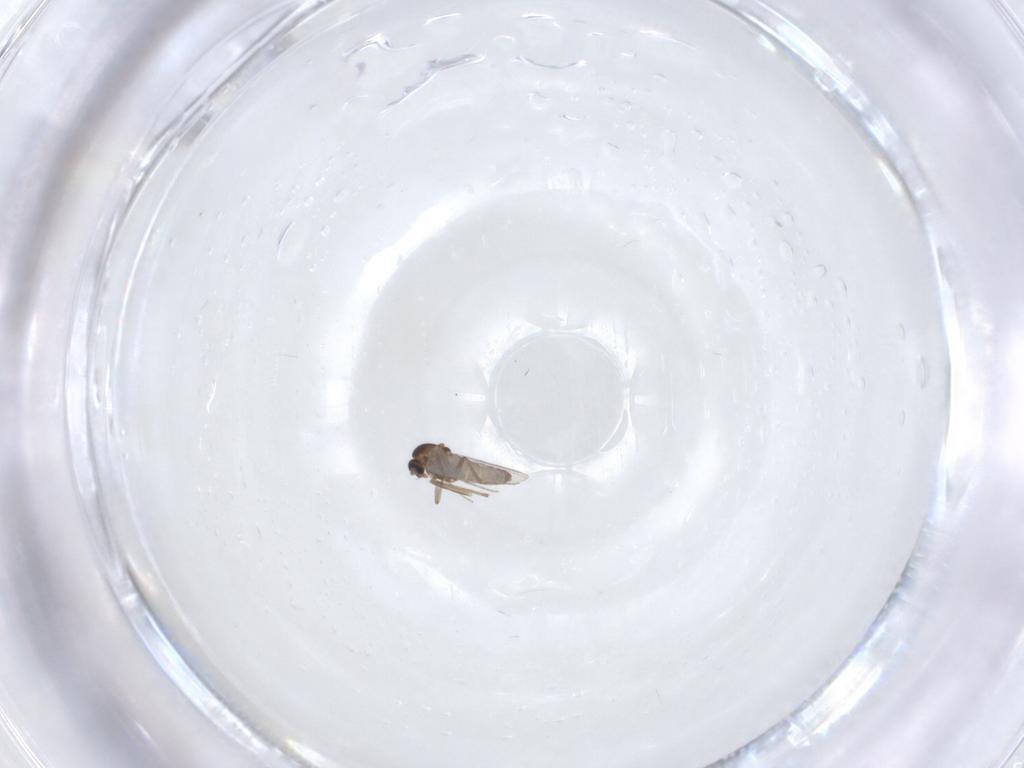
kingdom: Animalia
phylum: Arthropoda
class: Insecta
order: Diptera
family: Chironomidae
